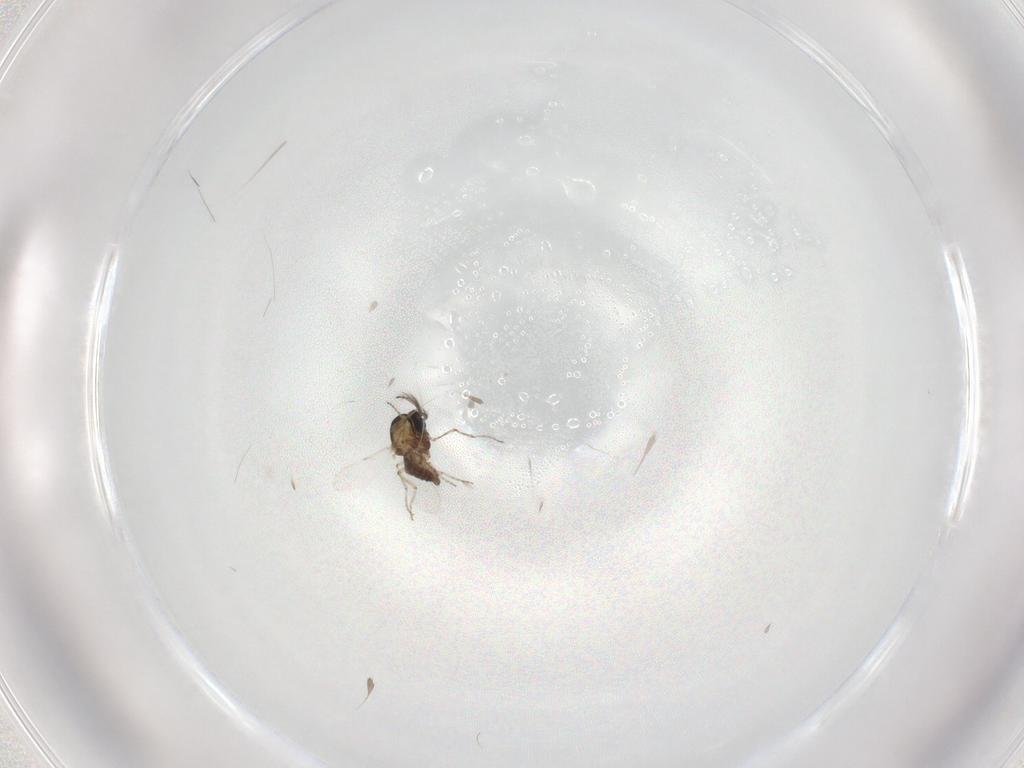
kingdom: Animalia
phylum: Arthropoda
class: Insecta
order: Diptera
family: Ceratopogonidae
